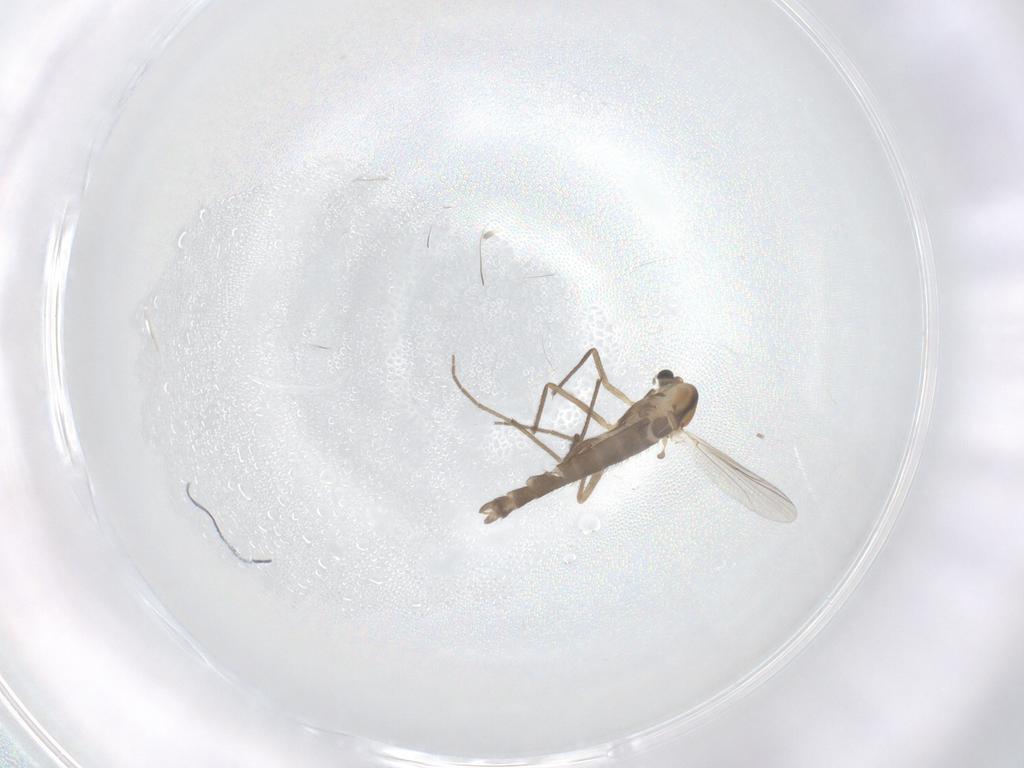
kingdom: Animalia
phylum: Arthropoda
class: Insecta
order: Diptera
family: Chironomidae
